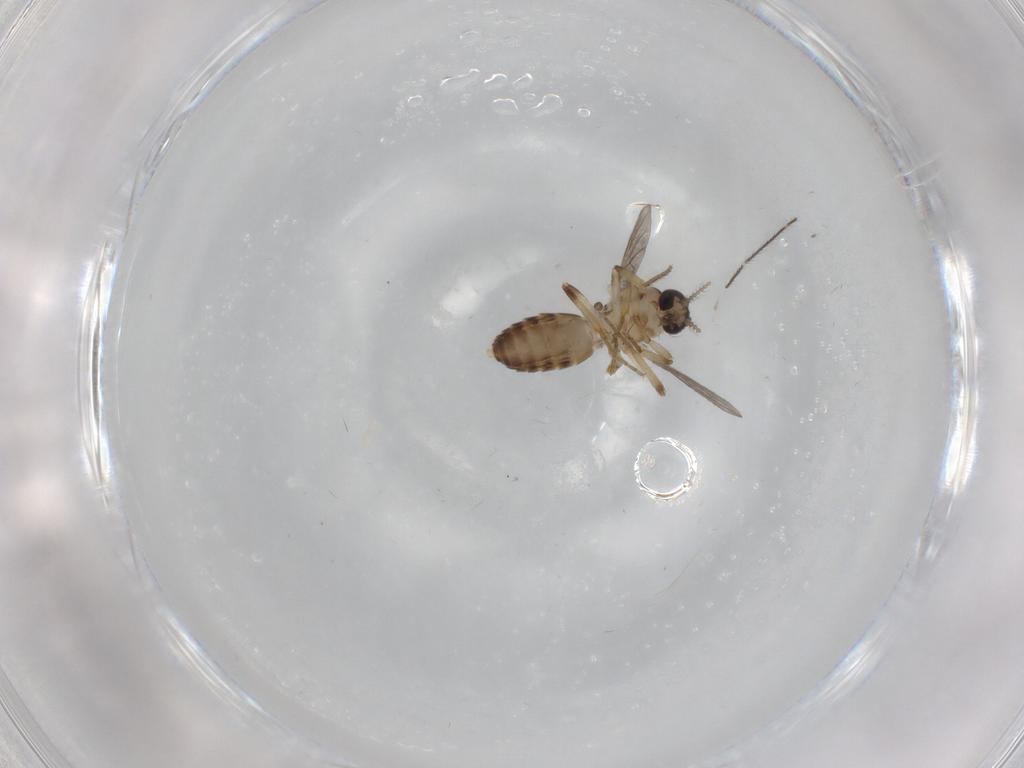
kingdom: Animalia
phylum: Arthropoda
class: Insecta
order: Diptera
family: Ceratopogonidae
